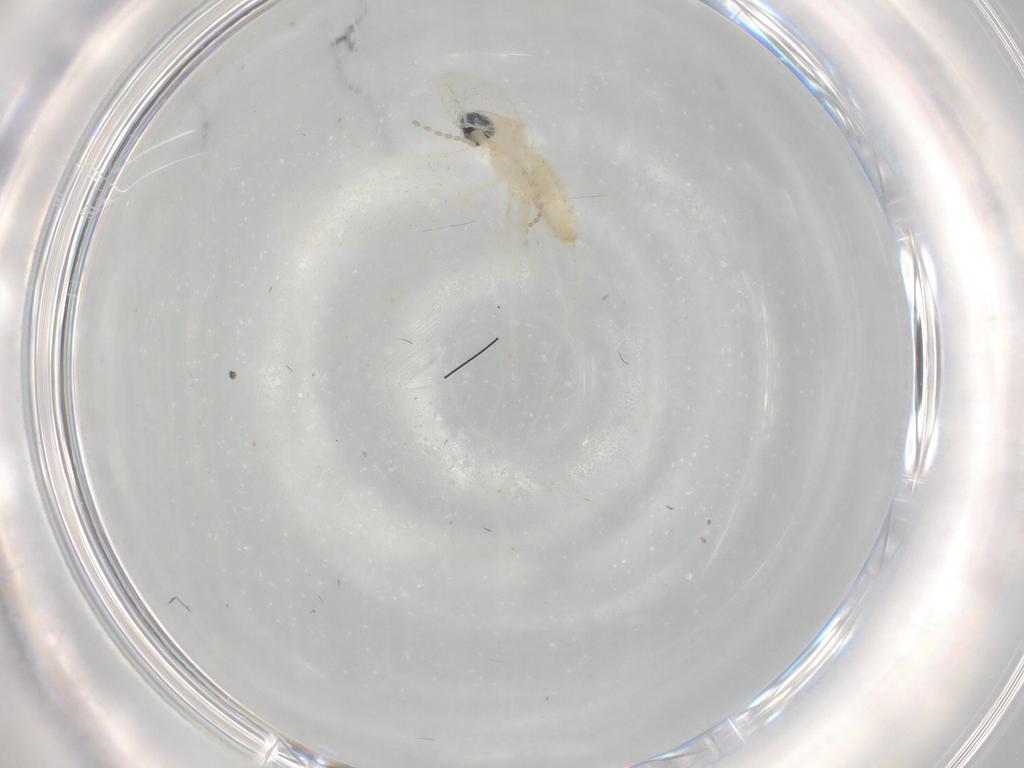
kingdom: Animalia
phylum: Arthropoda
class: Insecta
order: Diptera
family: Cecidomyiidae
